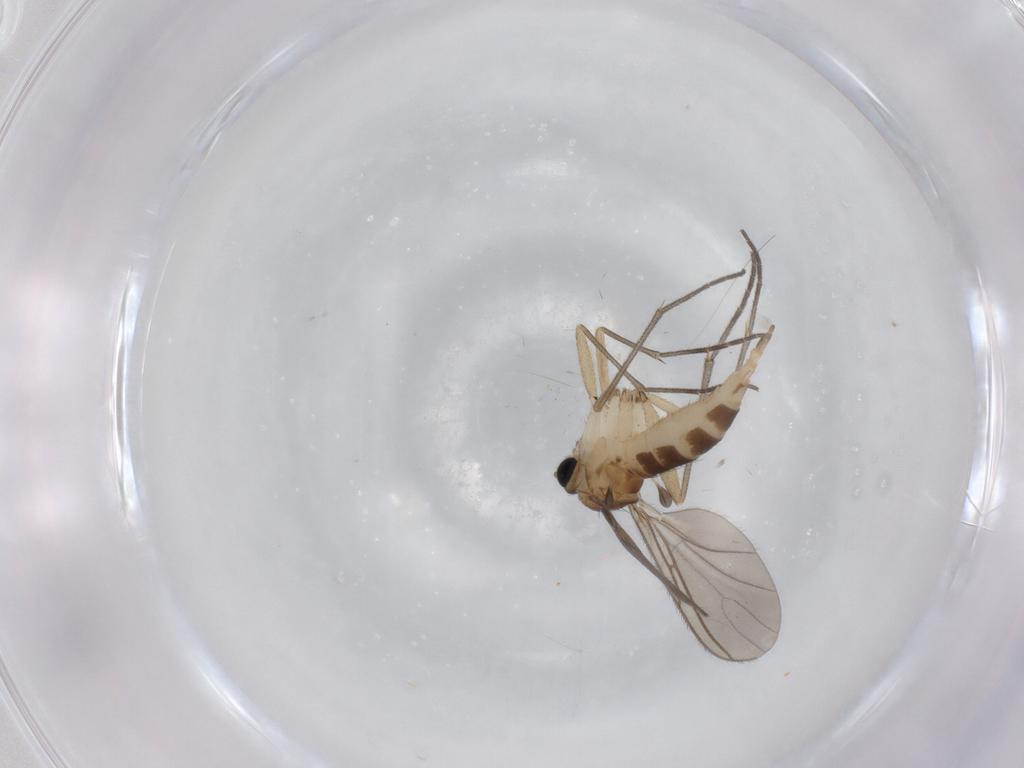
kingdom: Animalia
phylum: Arthropoda
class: Insecta
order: Diptera
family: Sciaridae
